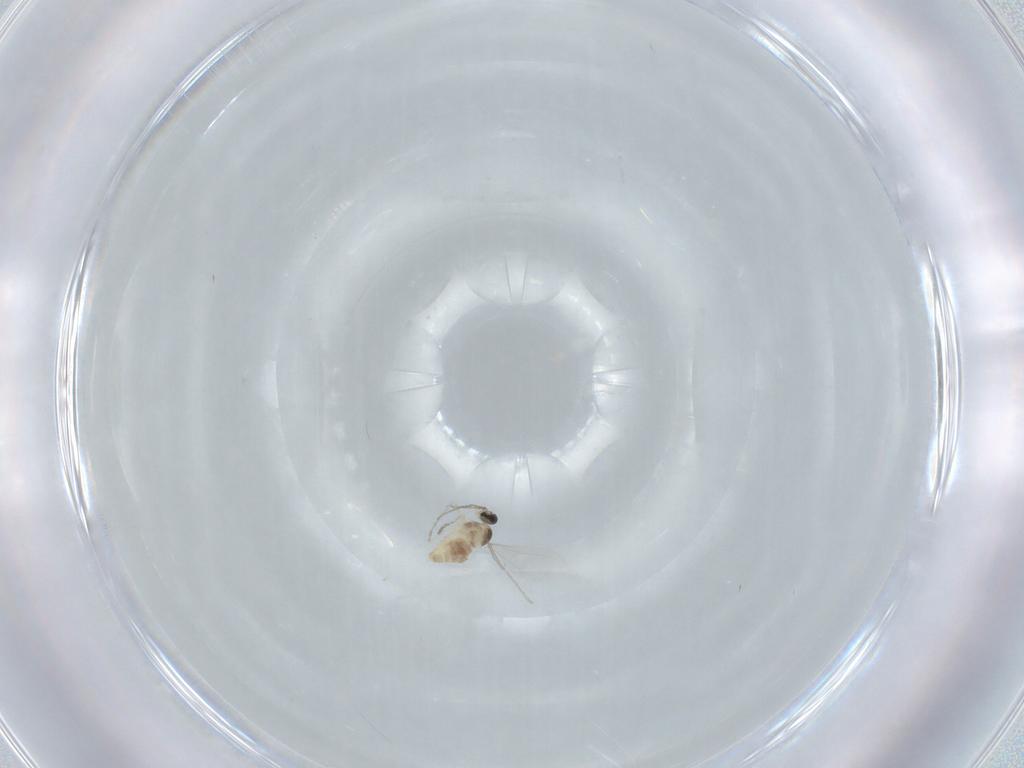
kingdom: Animalia
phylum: Arthropoda
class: Insecta
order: Diptera
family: Cecidomyiidae
